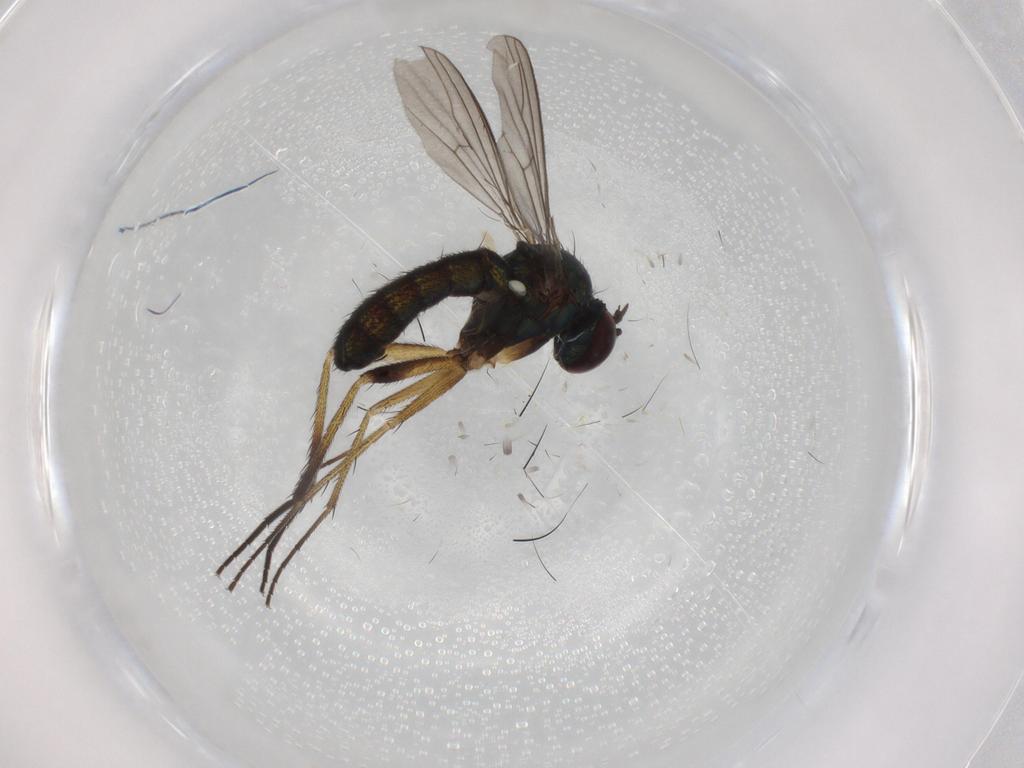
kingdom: Animalia
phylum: Arthropoda
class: Insecta
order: Diptera
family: Dolichopodidae
